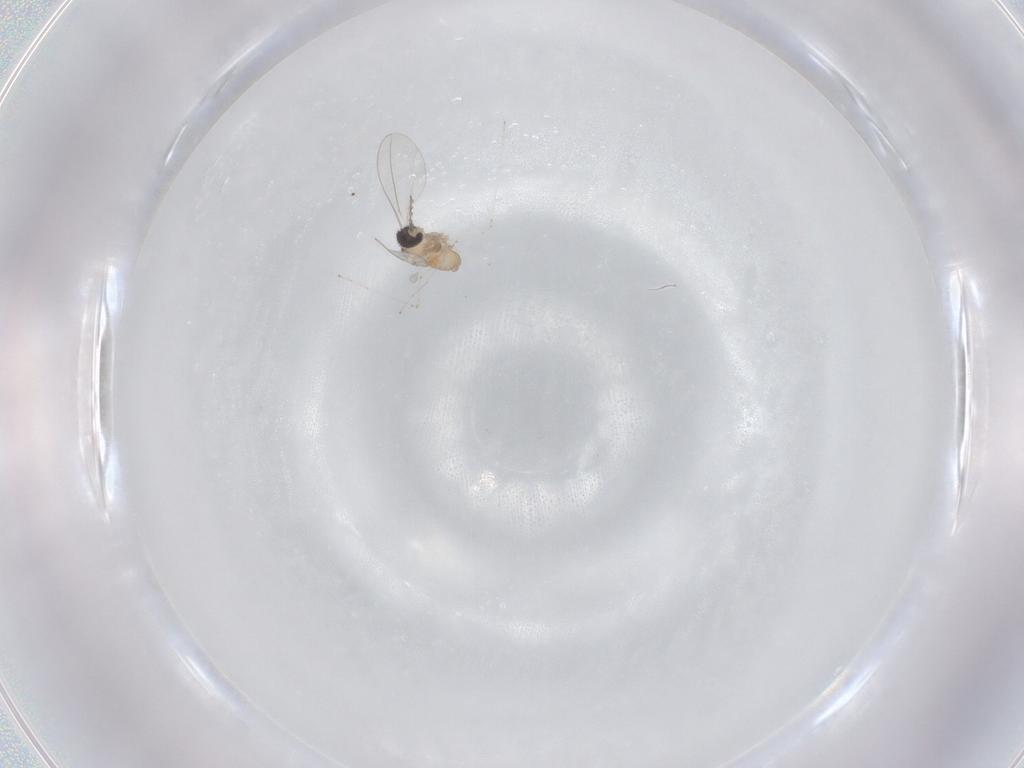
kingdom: Animalia
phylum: Arthropoda
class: Insecta
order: Diptera
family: Cecidomyiidae
